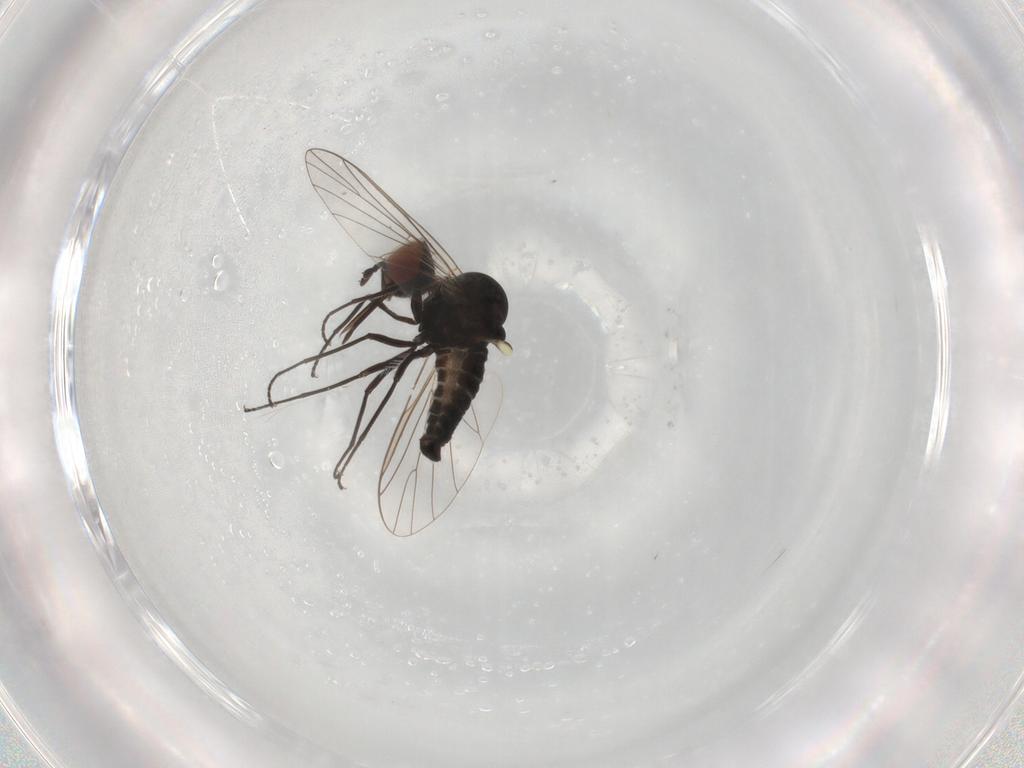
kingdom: Animalia
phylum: Arthropoda
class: Insecta
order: Diptera
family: Bombyliidae
